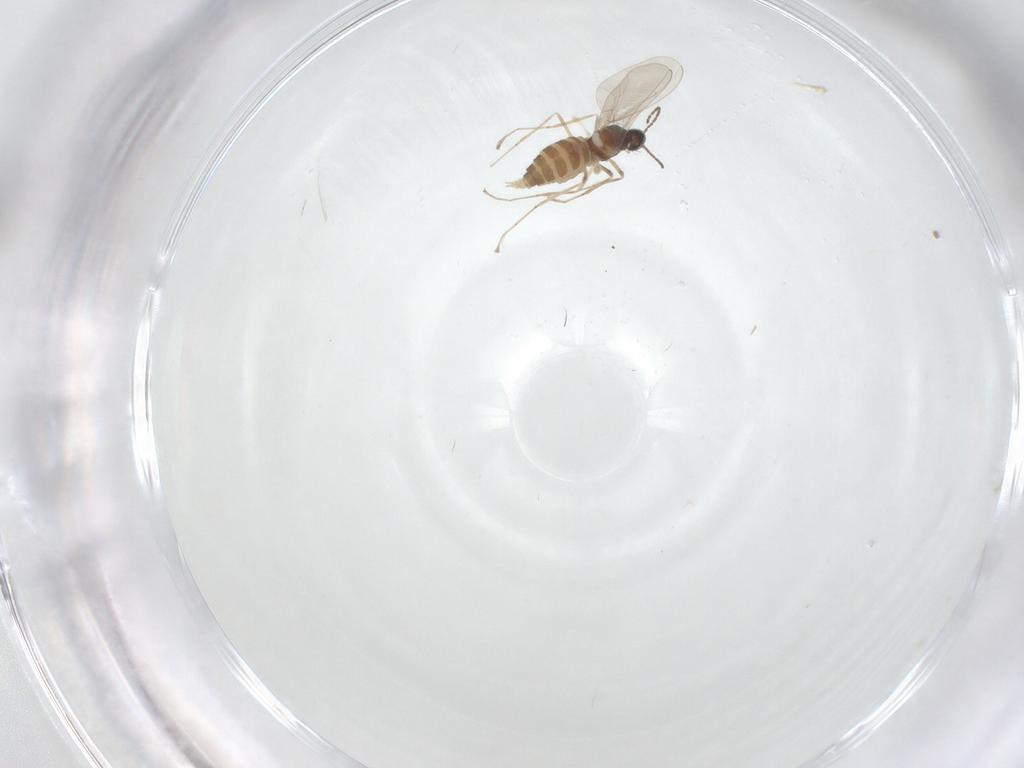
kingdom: Animalia
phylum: Arthropoda
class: Insecta
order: Diptera
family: Cecidomyiidae
